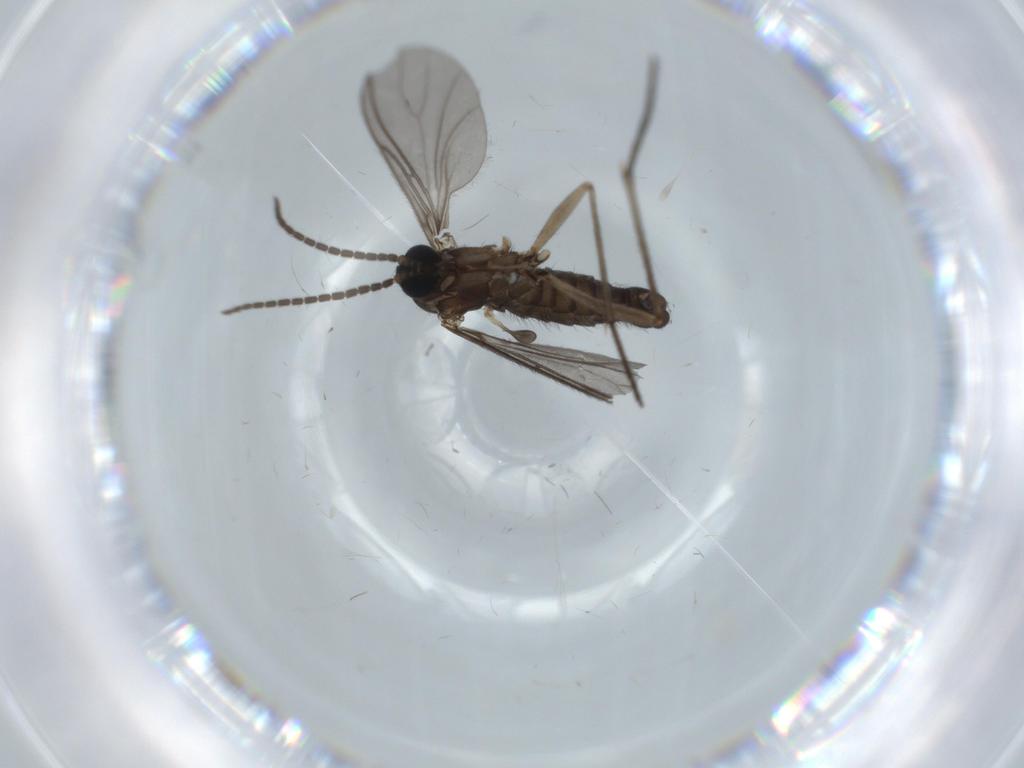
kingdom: Animalia
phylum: Arthropoda
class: Insecta
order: Diptera
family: Sciaridae
